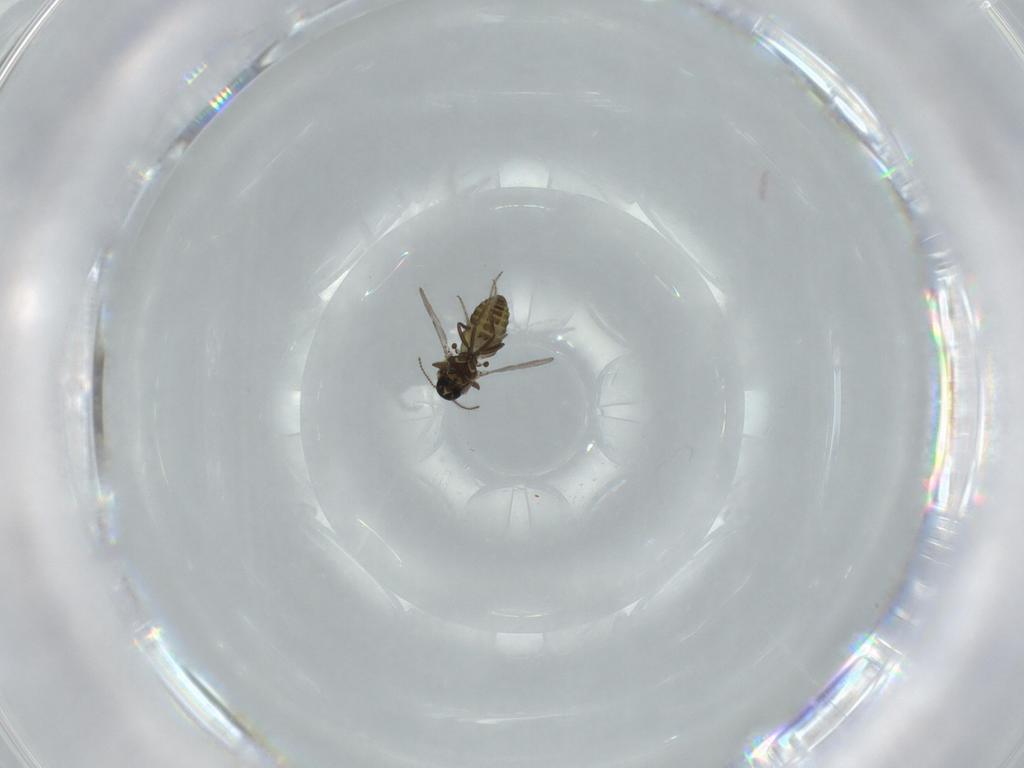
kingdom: Animalia
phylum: Arthropoda
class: Insecta
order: Diptera
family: Ceratopogonidae
